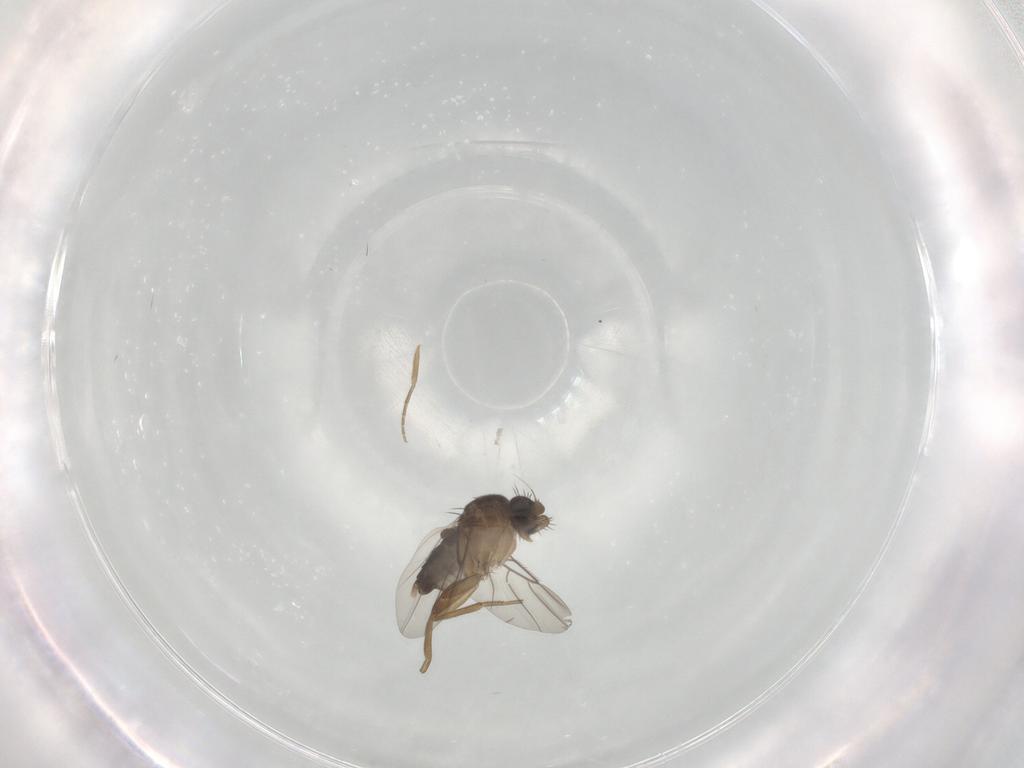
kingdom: Animalia
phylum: Arthropoda
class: Insecta
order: Diptera
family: Phoridae
